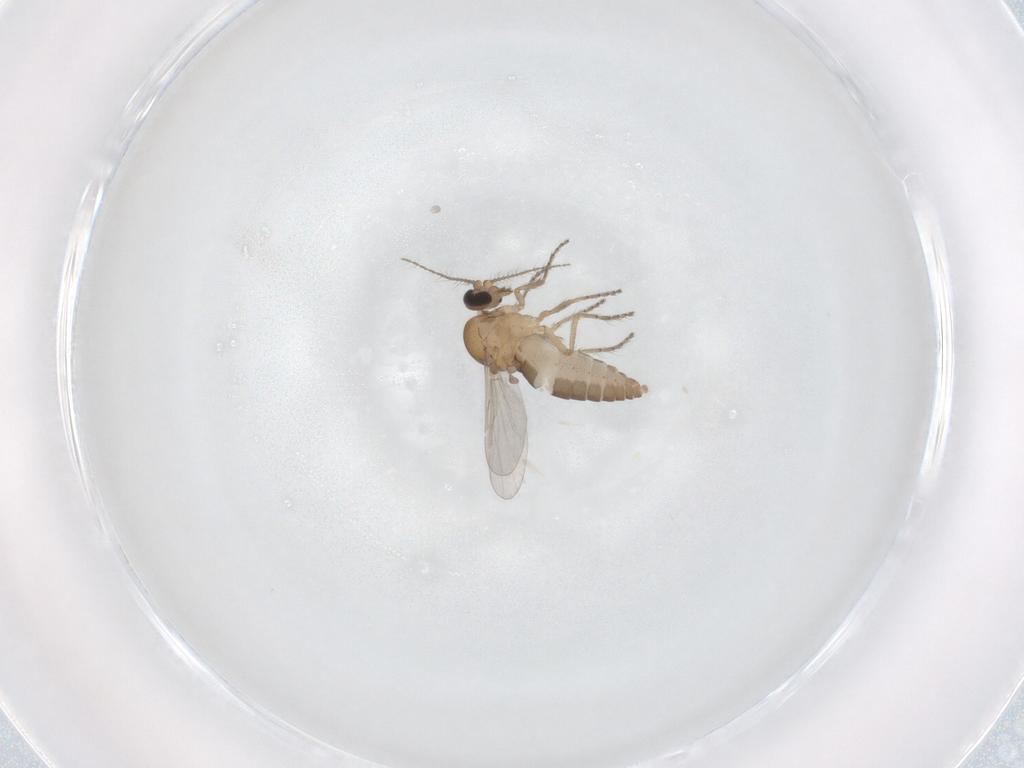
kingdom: Animalia
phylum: Arthropoda
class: Insecta
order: Diptera
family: Ceratopogonidae
